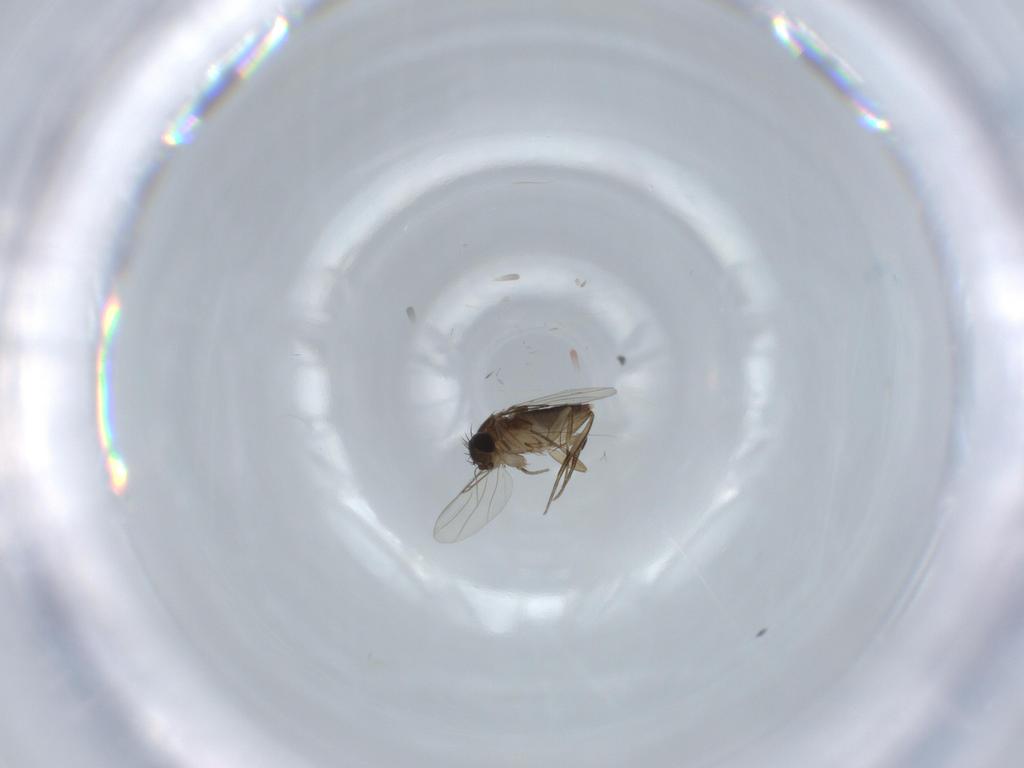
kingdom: Animalia
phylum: Arthropoda
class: Insecta
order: Diptera
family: Phoridae
